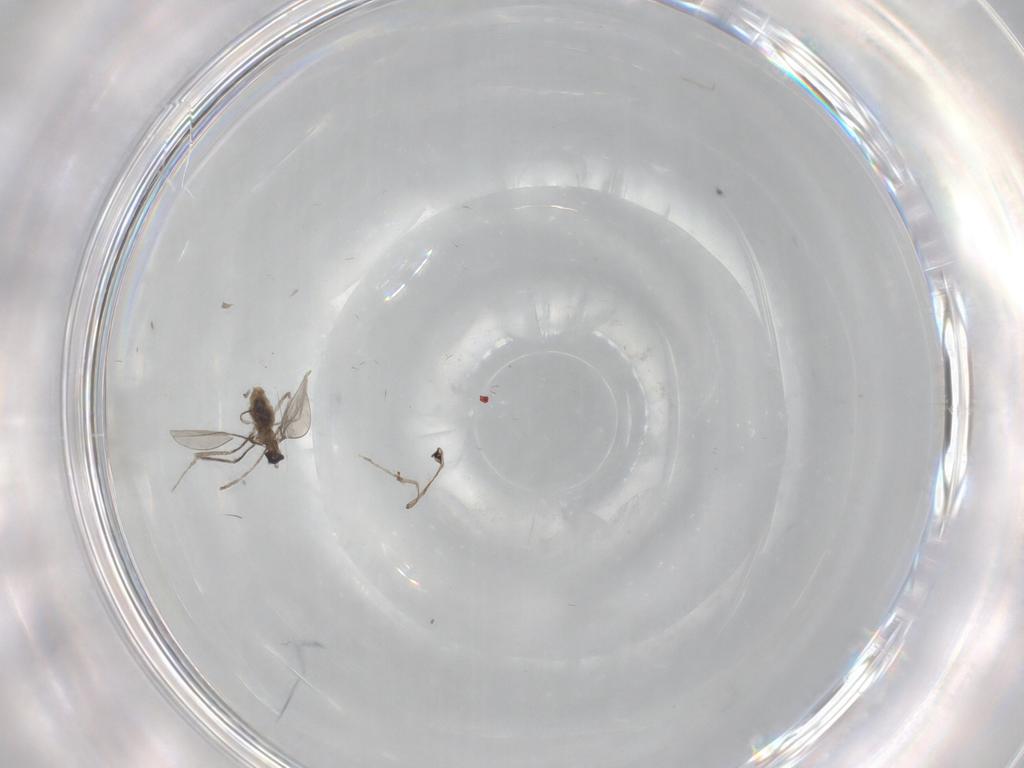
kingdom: Animalia
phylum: Arthropoda
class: Insecta
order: Diptera
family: Cecidomyiidae
